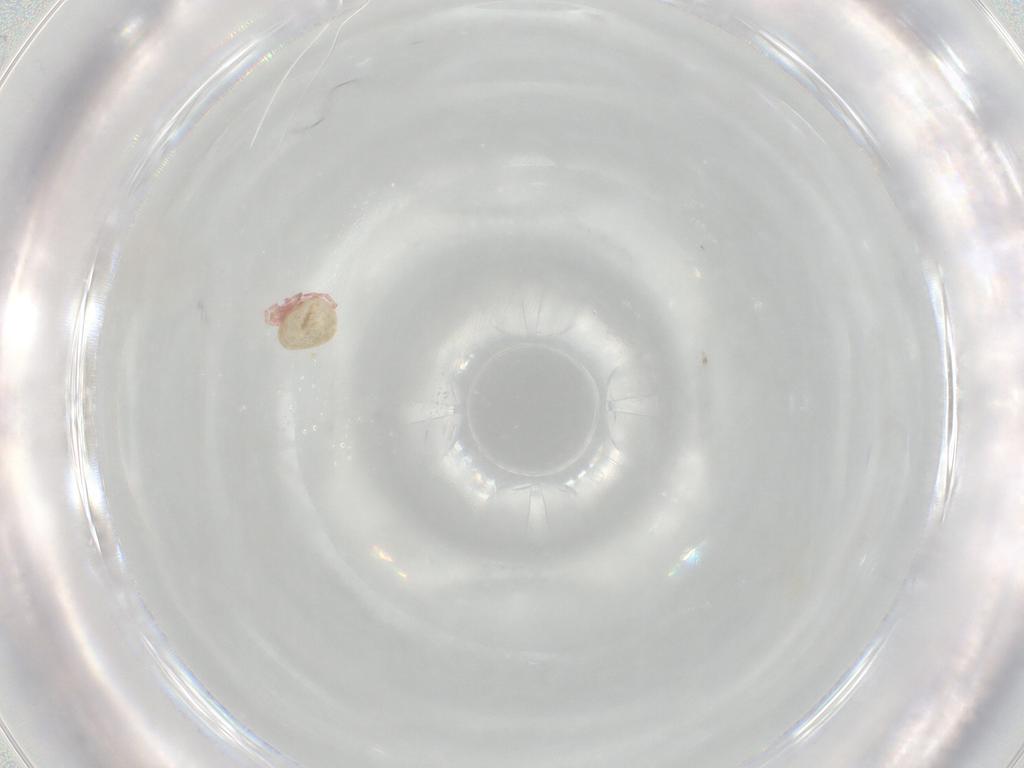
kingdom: Animalia
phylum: Arthropoda
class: Arachnida
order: Trombidiformes
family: Pionidae
